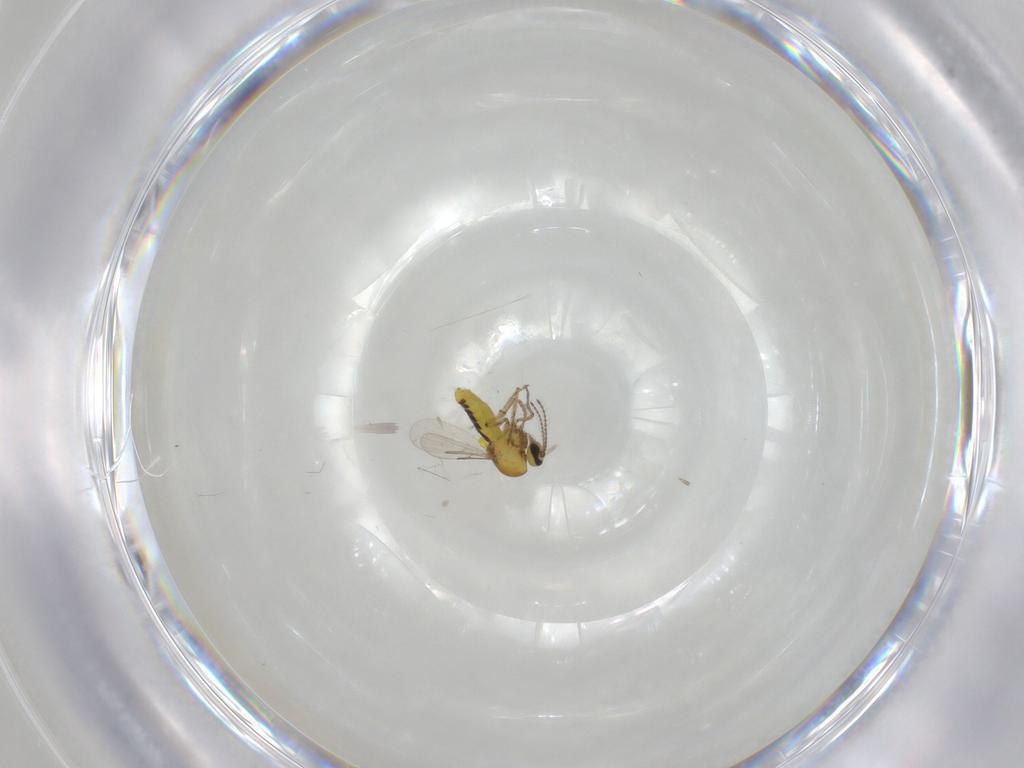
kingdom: Animalia
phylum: Arthropoda
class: Insecta
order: Diptera
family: Ceratopogonidae
